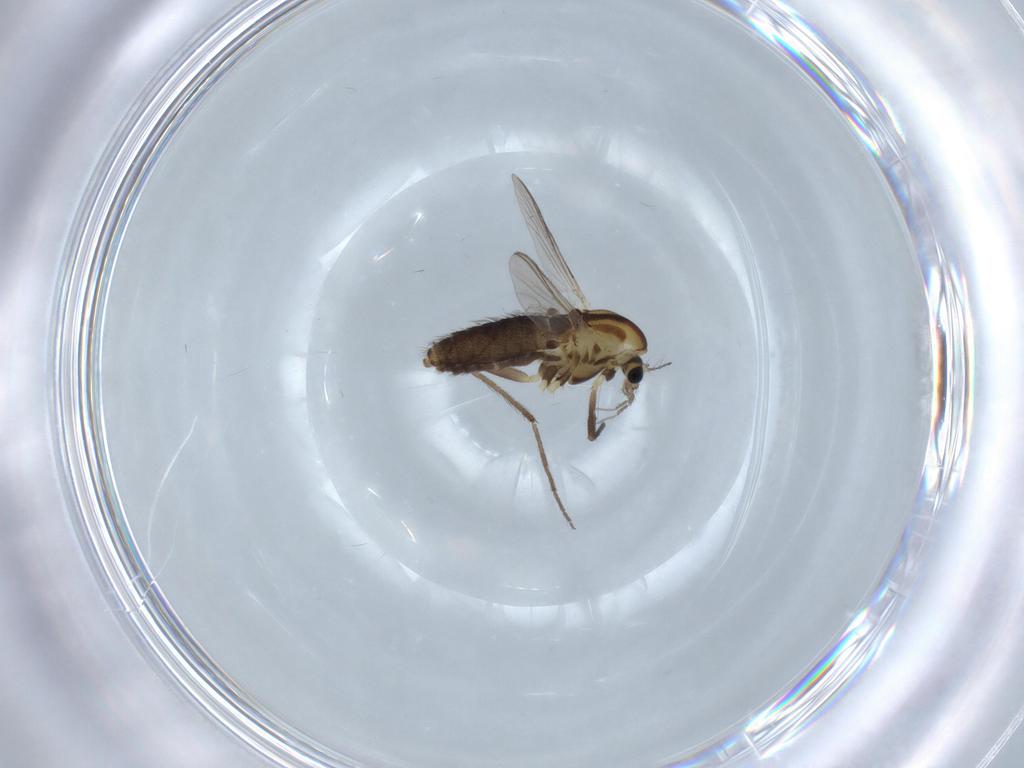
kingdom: Animalia
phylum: Arthropoda
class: Insecta
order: Diptera
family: Chironomidae
